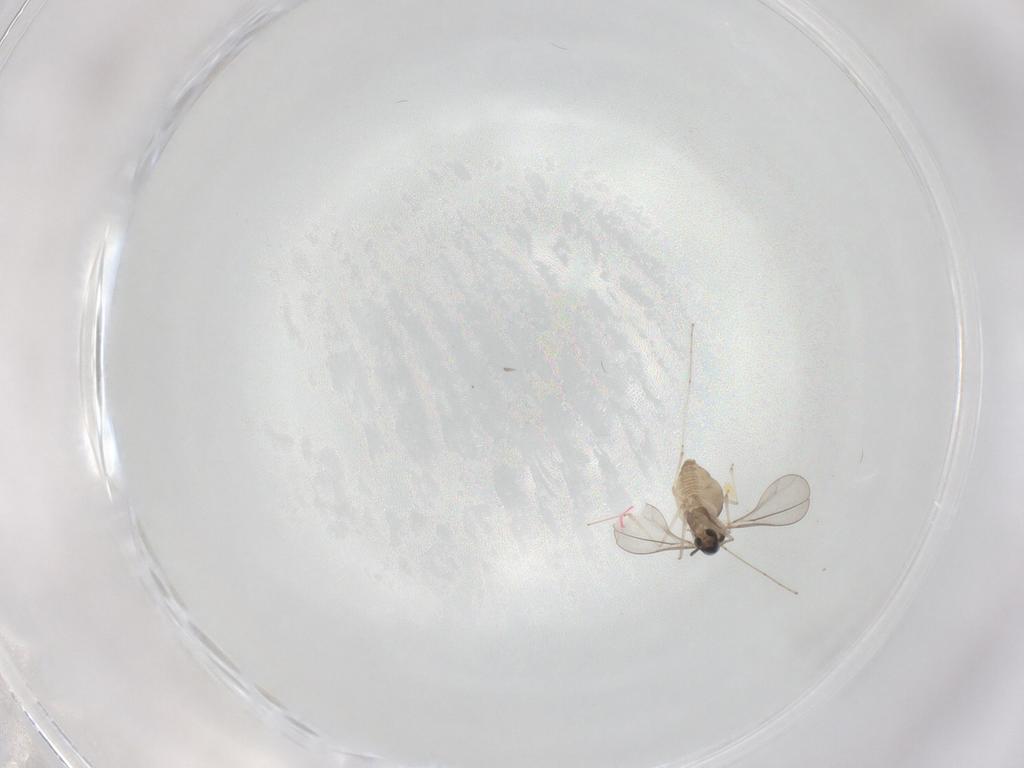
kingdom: Animalia
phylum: Arthropoda
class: Insecta
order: Diptera
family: Cecidomyiidae
